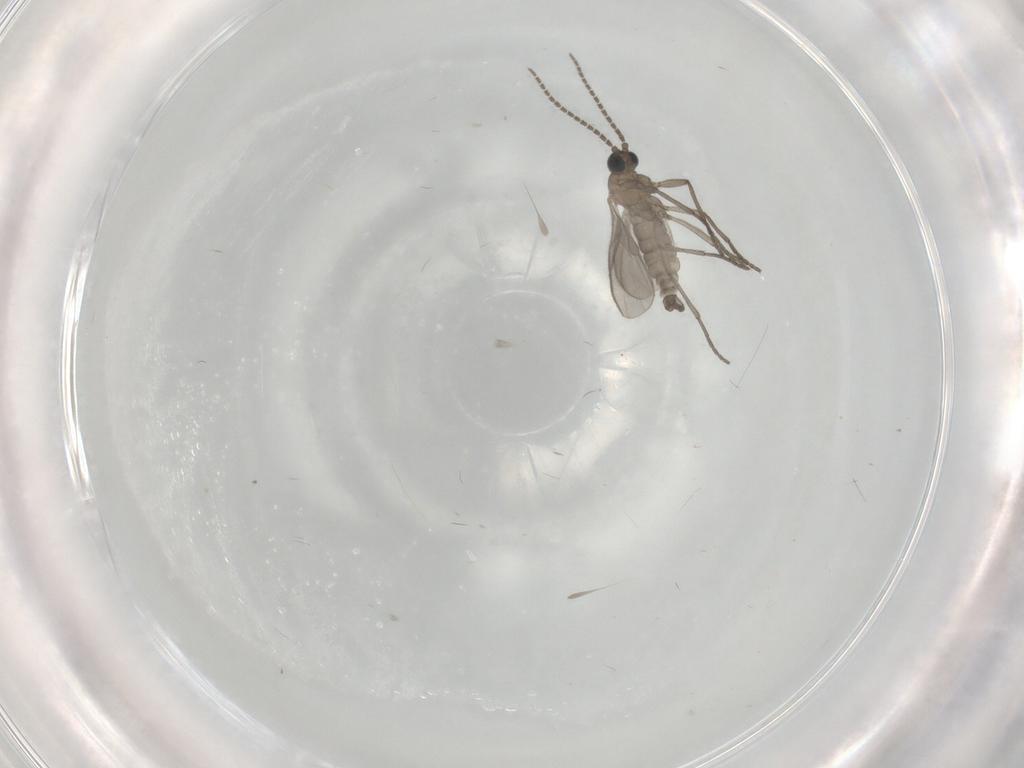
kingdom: Animalia
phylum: Arthropoda
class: Insecta
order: Diptera
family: Sciaridae
